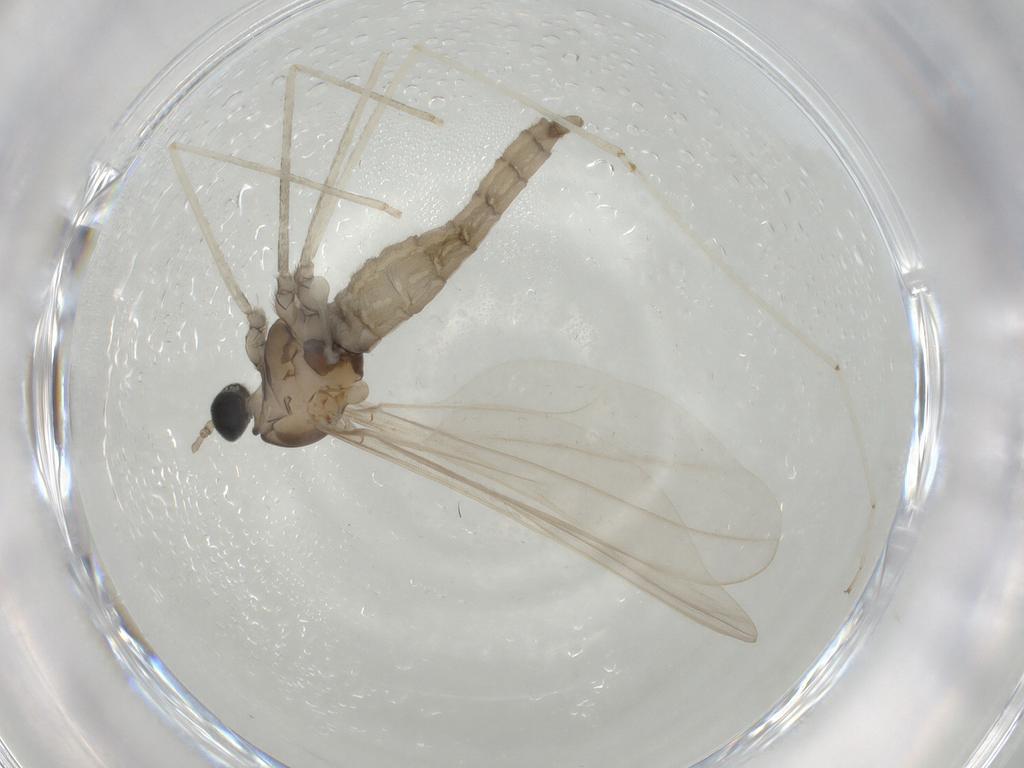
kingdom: Animalia
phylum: Arthropoda
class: Insecta
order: Diptera
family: Cecidomyiidae
